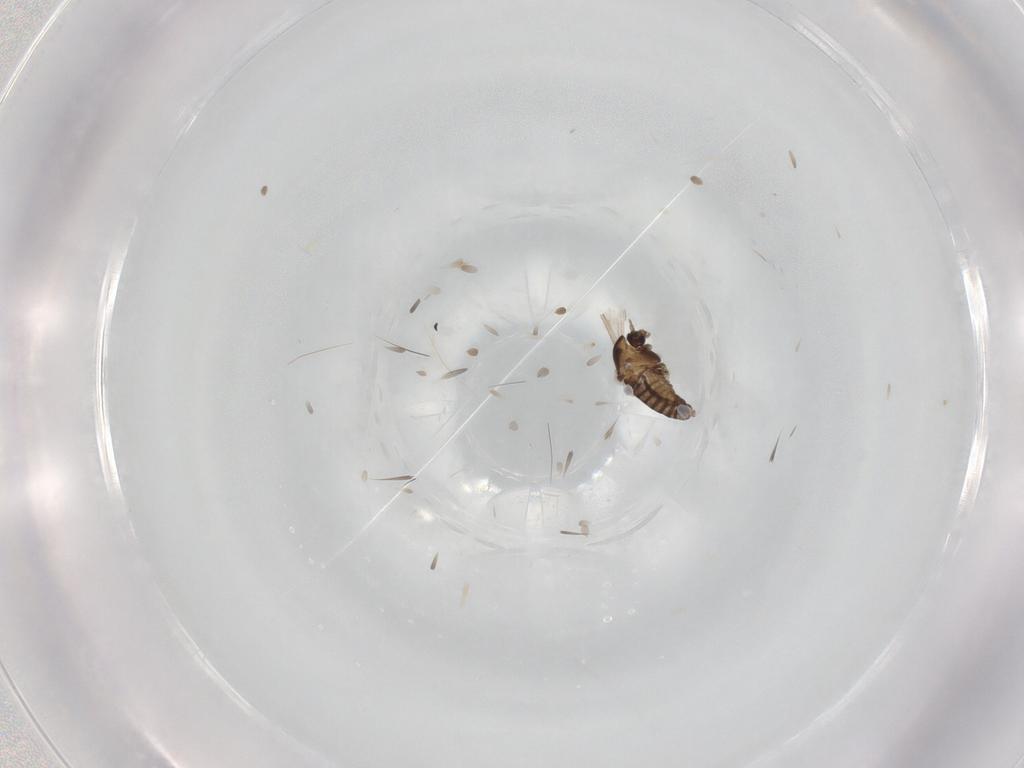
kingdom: Animalia
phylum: Arthropoda
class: Insecta
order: Diptera
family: Chironomidae
